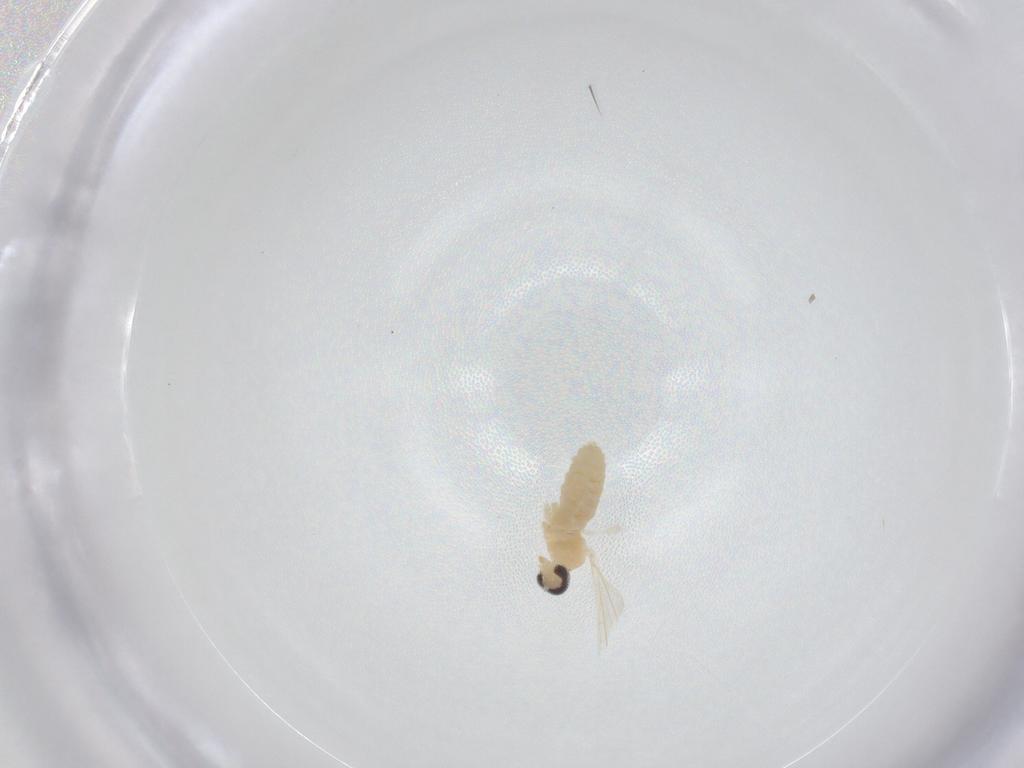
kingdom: Animalia
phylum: Arthropoda
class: Insecta
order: Diptera
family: Cecidomyiidae
